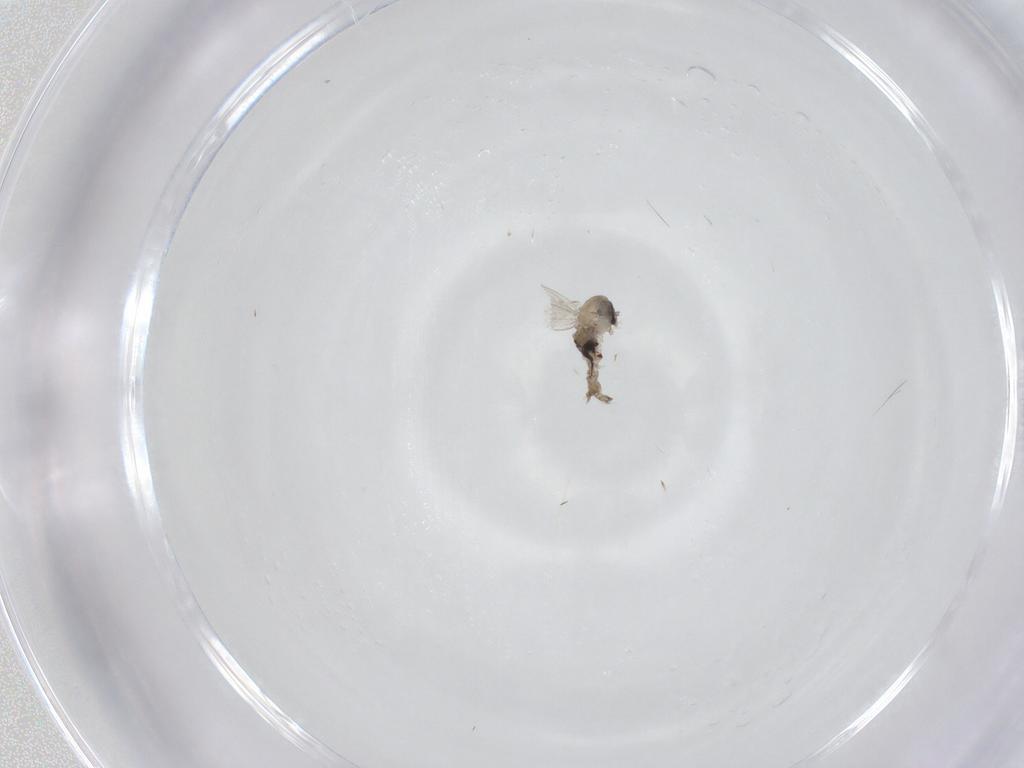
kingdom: Animalia
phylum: Arthropoda
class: Insecta
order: Diptera
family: Psychodidae
